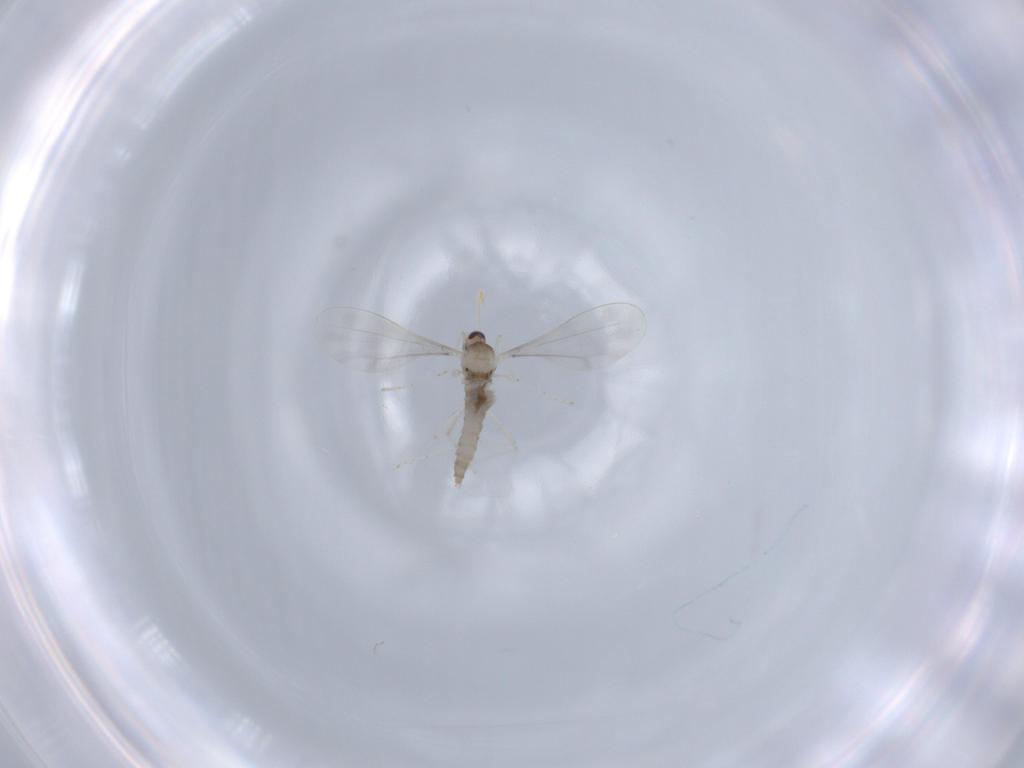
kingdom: Animalia
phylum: Arthropoda
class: Insecta
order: Diptera
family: Cecidomyiidae
